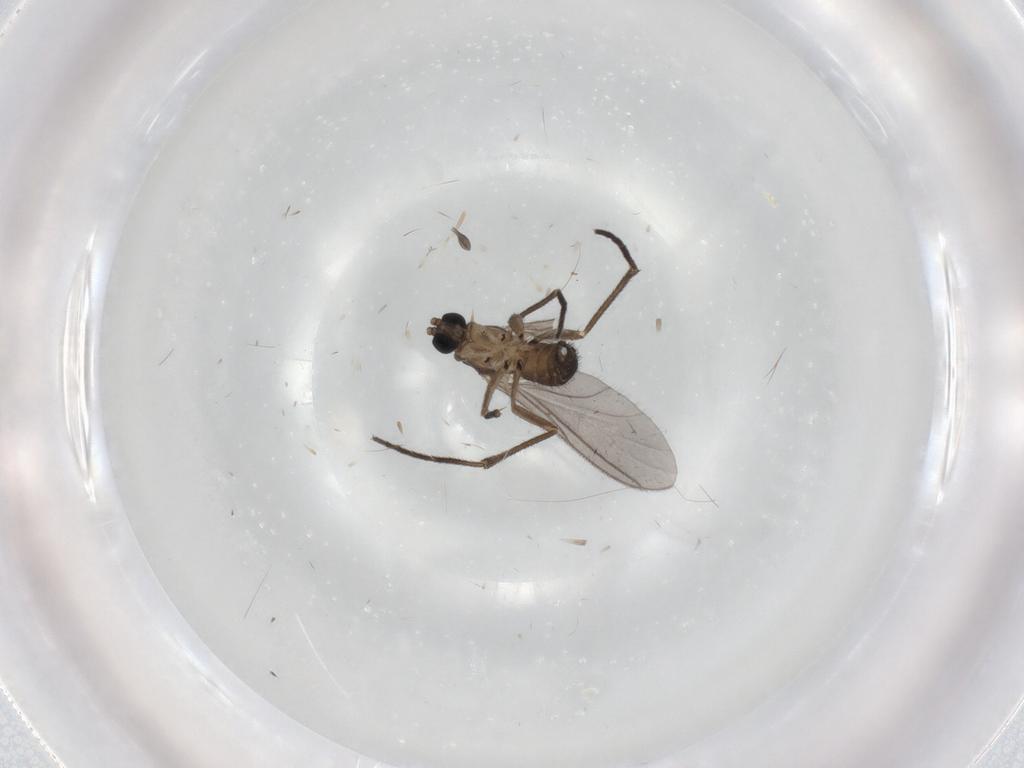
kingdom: Animalia
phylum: Arthropoda
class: Insecta
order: Diptera
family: Sciaridae
